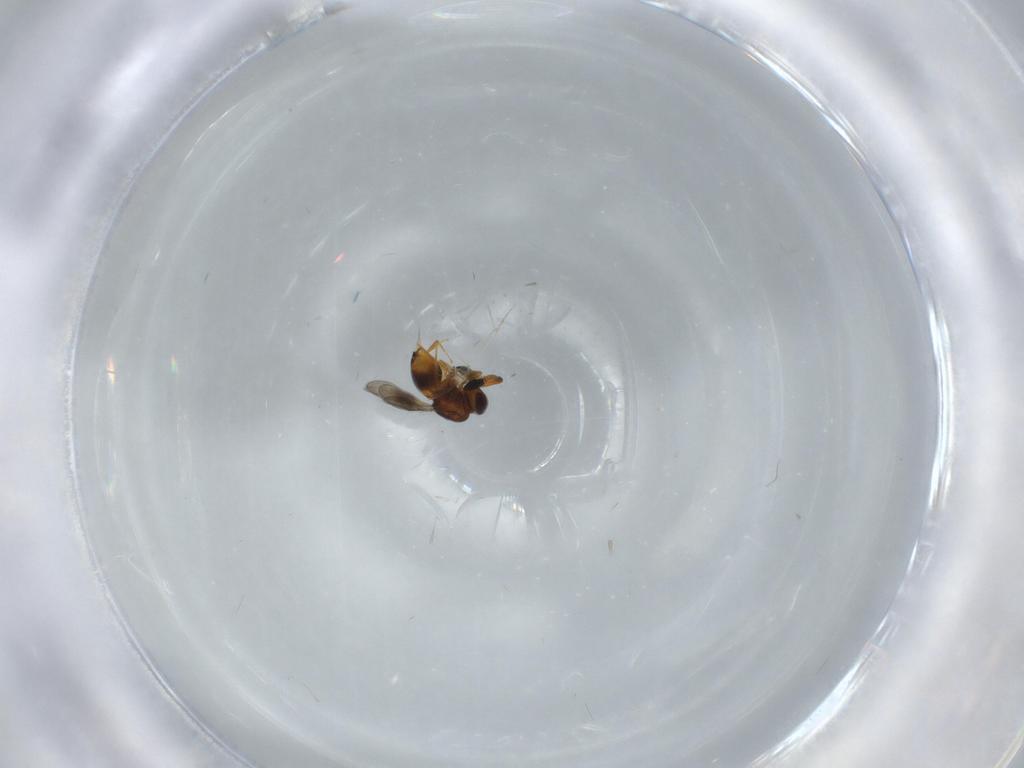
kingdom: Animalia
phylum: Arthropoda
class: Insecta
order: Hymenoptera
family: Scelionidae
